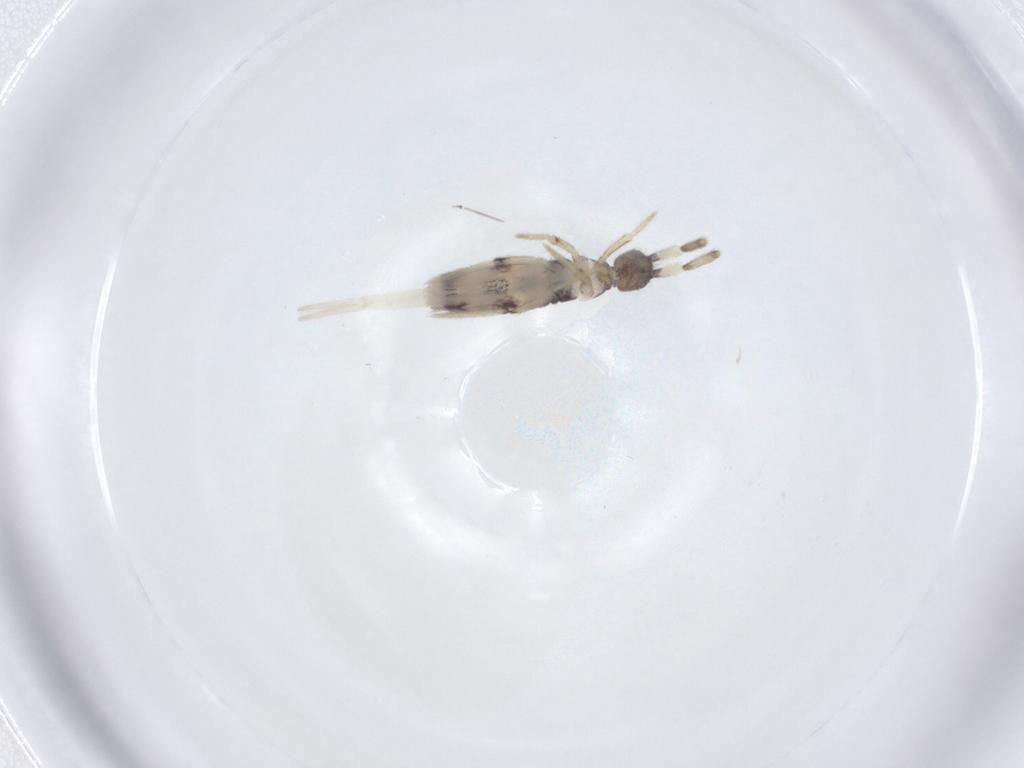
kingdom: Animalia
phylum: Arthropoda
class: Collembola
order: Entomobryomorpha
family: Entomobryidae
